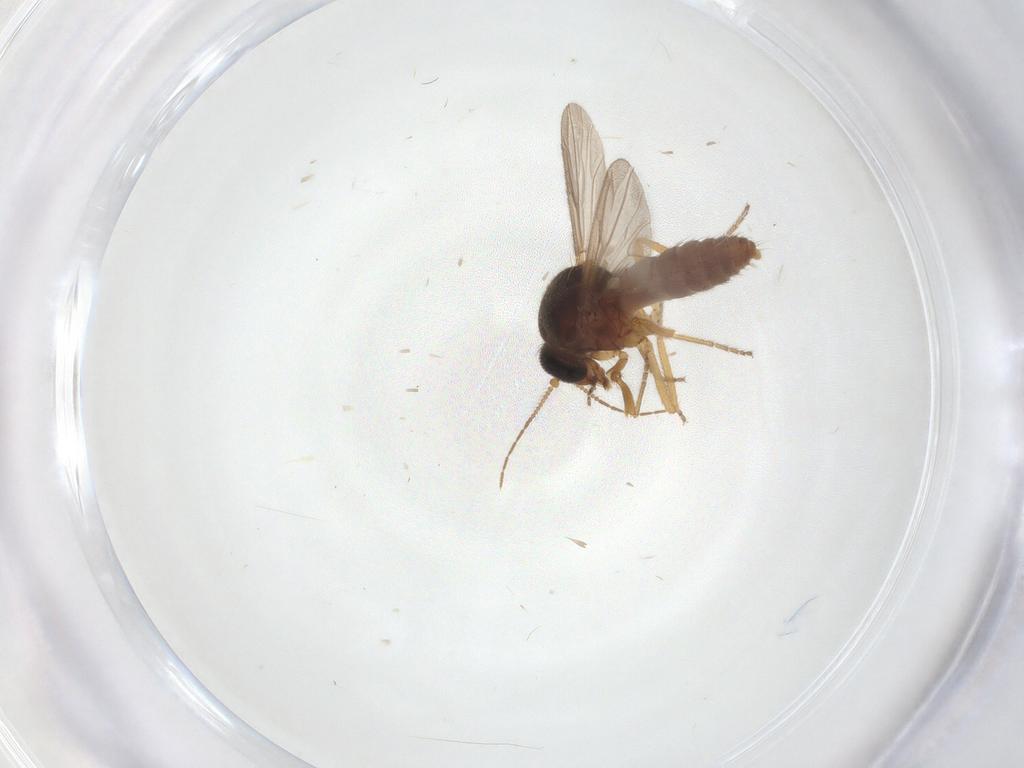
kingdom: Animalia
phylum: Arthropoda
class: Insecta
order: Diptera
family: Ceratopogonidae
